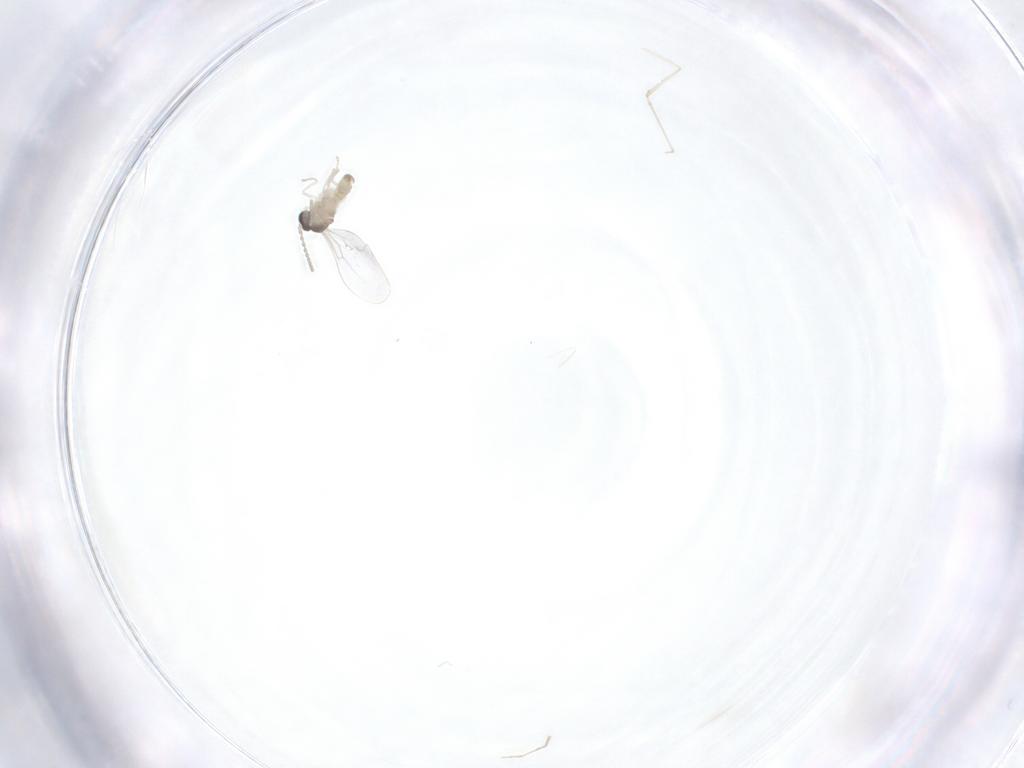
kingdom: Animalia
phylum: Arthropoda
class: Insecta
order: Diptera
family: Cecidomyiidae
